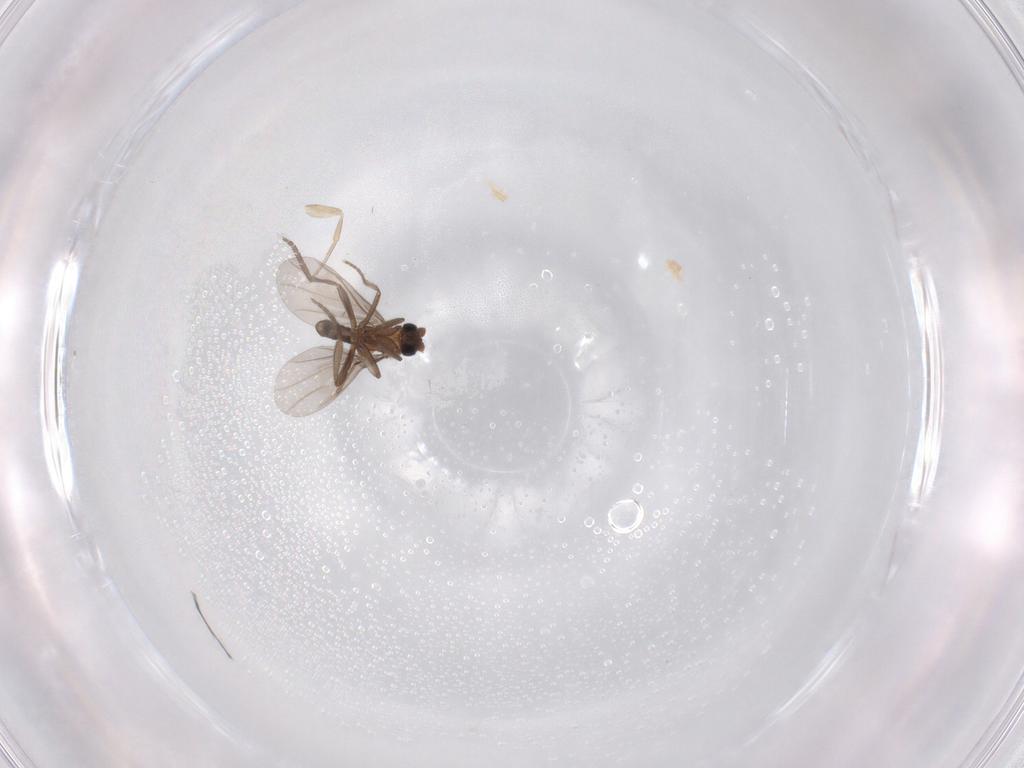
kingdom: Animalia
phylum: Arthropoda
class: Insecta
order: Diptera
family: Phoridae
